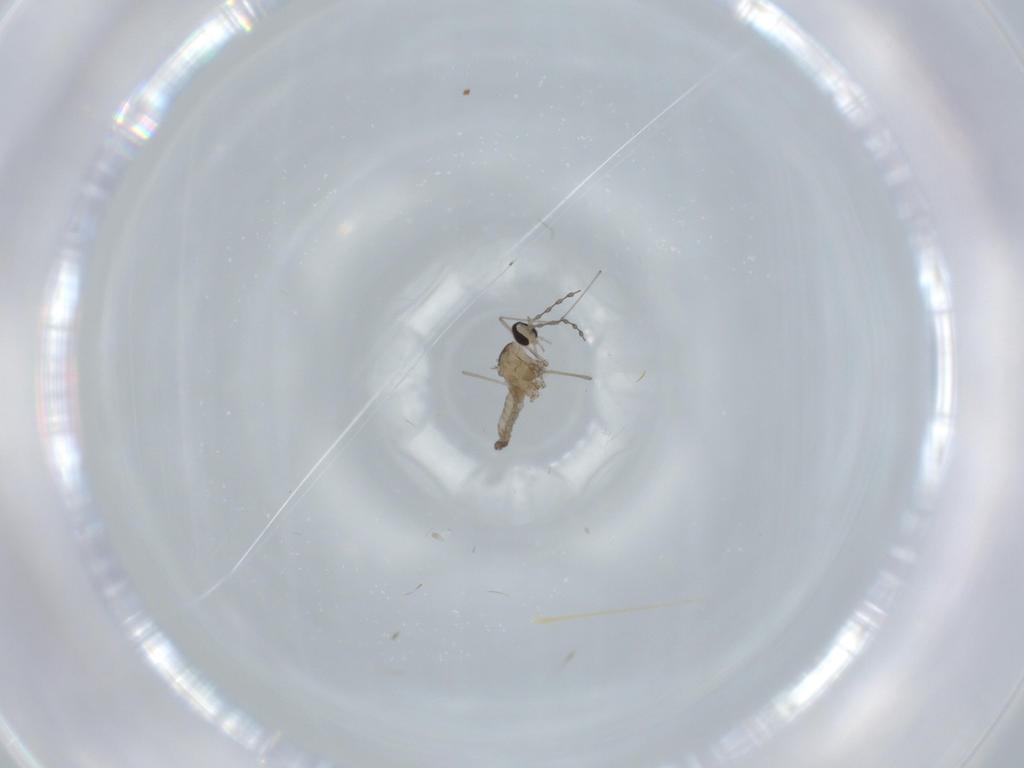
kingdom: Animalia
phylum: Arthropoda
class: Insecta
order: Diptera
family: Cecidomyiidae
